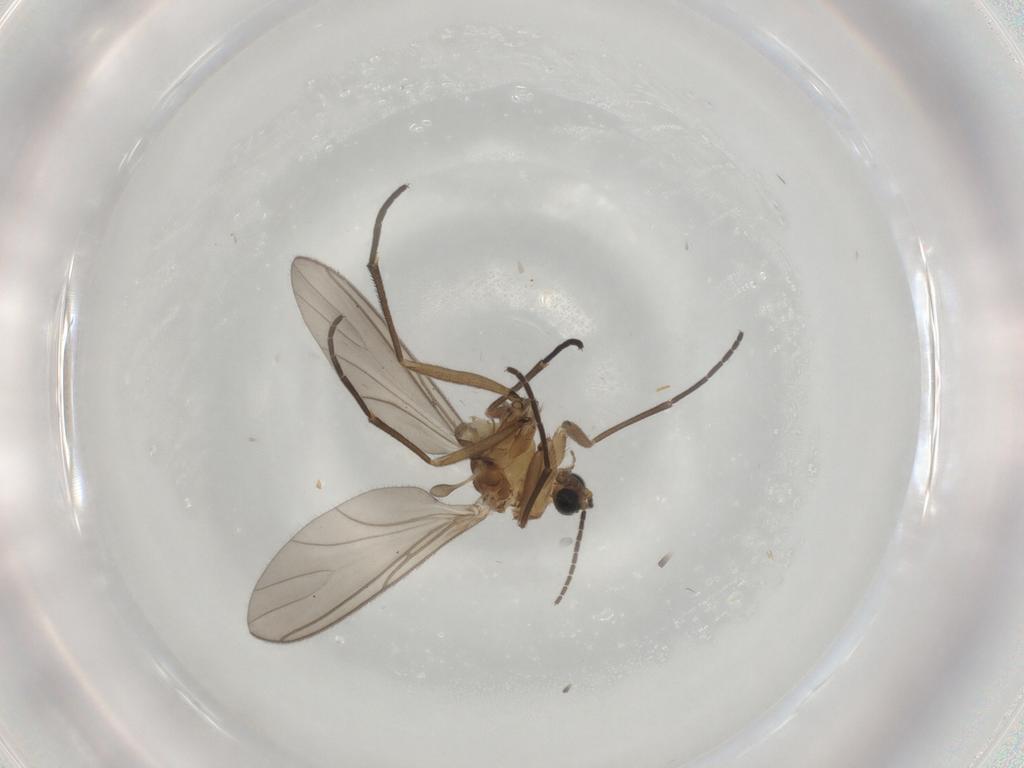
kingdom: Animalia
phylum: Arthropoda
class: Insecta
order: Diptera
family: Sciaridae
